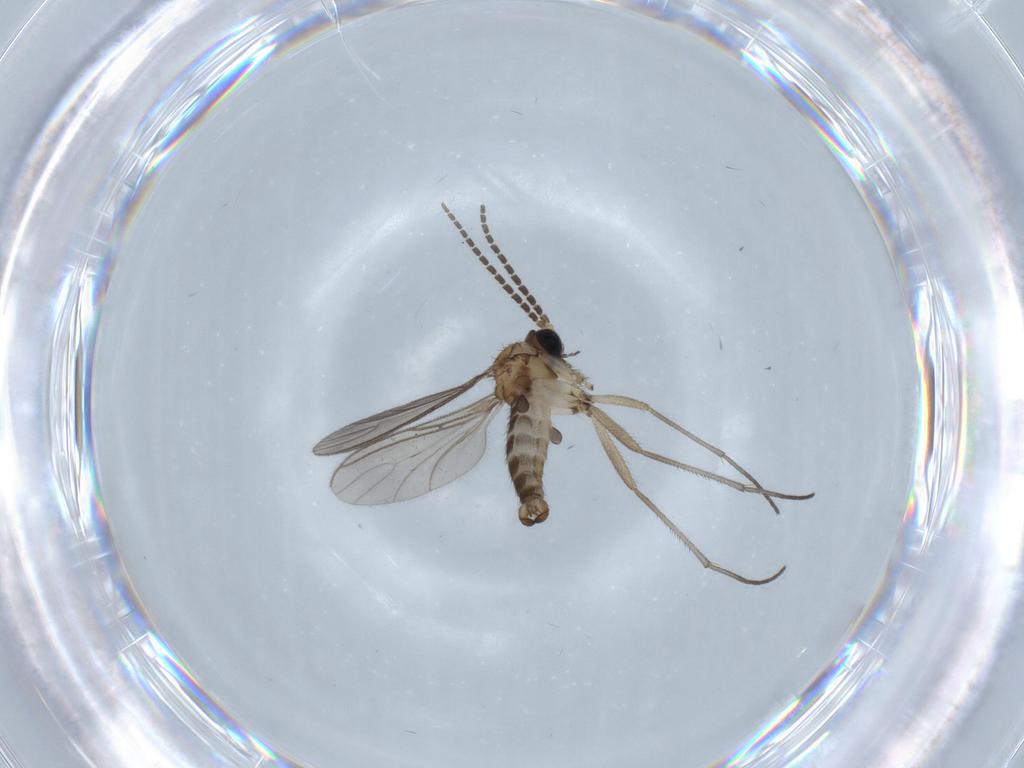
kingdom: Animalia
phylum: Arthropoda
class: Insecta
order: Diptera
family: Sciaridae
